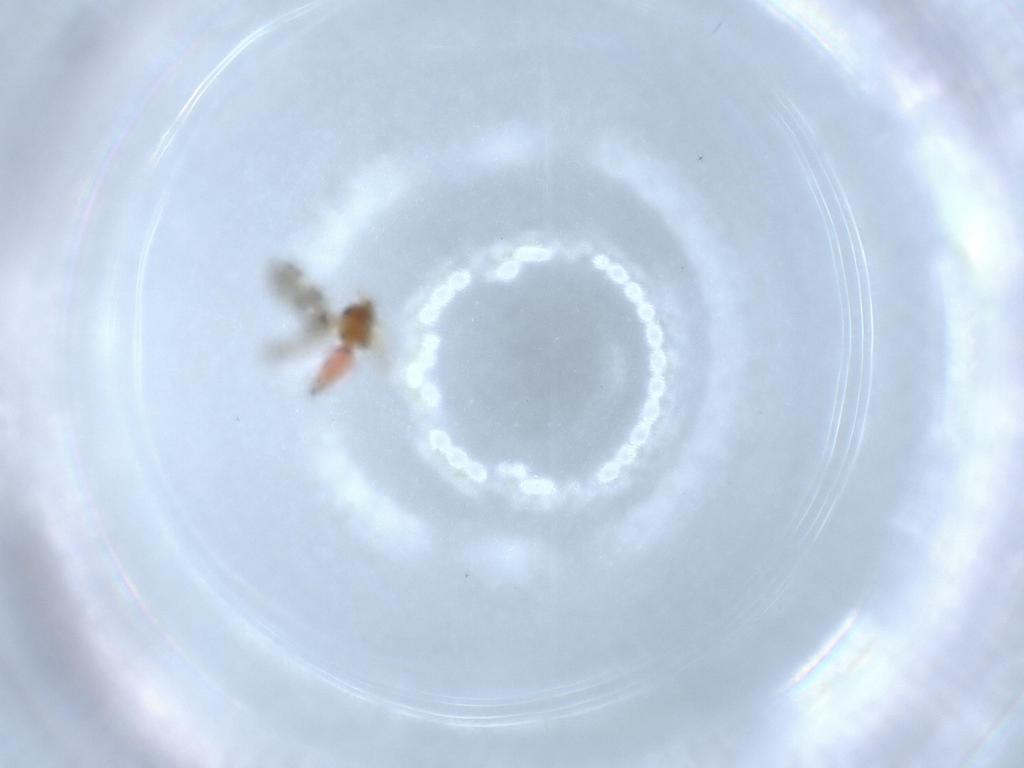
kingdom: Animalia
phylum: Arthropoda
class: Insecta
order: Hemiptera
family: Aleyrodidae
